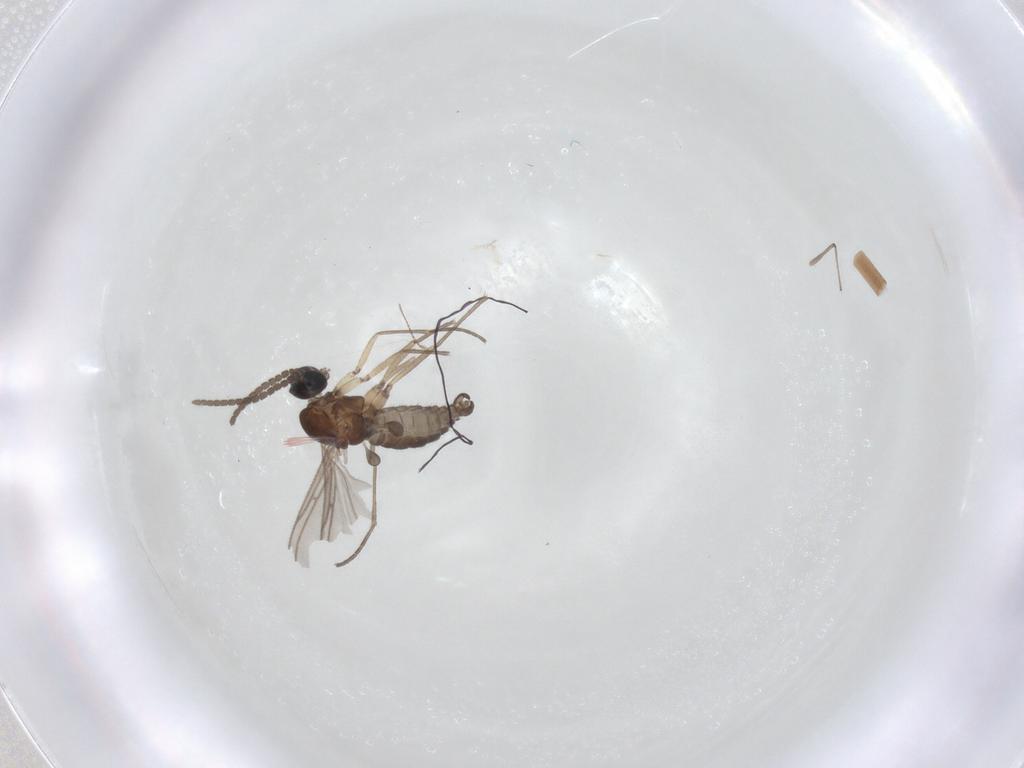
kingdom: Animalia
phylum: Arthropoda
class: Insecta
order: Diptera
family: Sciaridae
